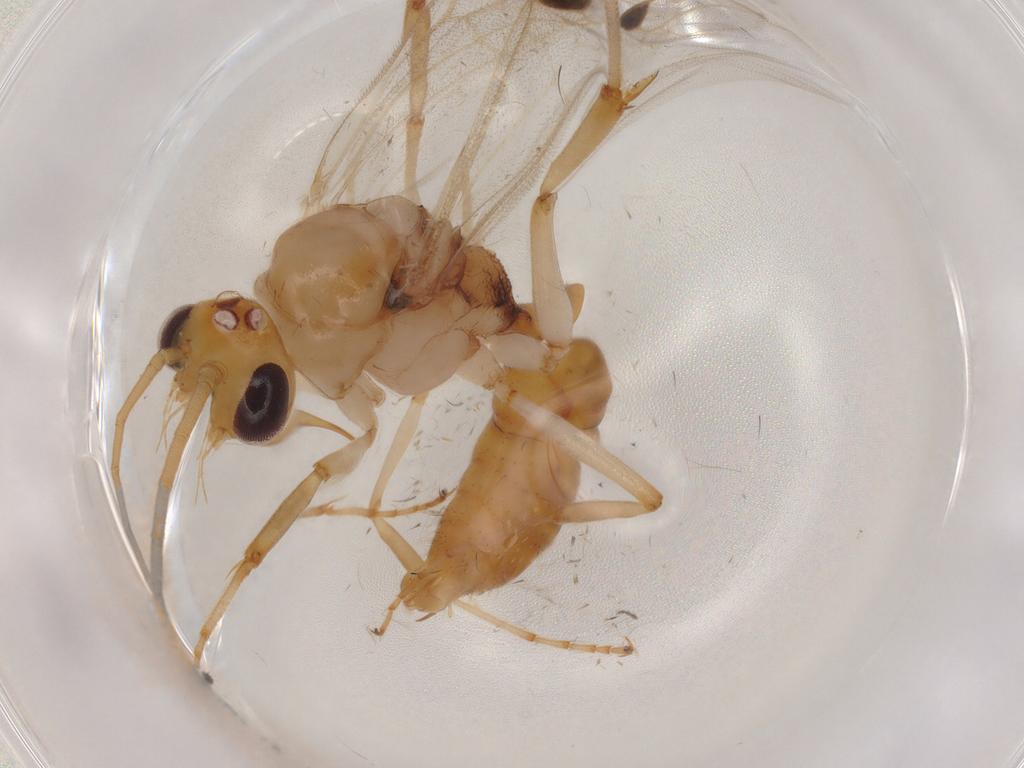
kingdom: Animalia
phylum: Arthropoda
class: Insecta
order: Hymenoptera
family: Formicidae
